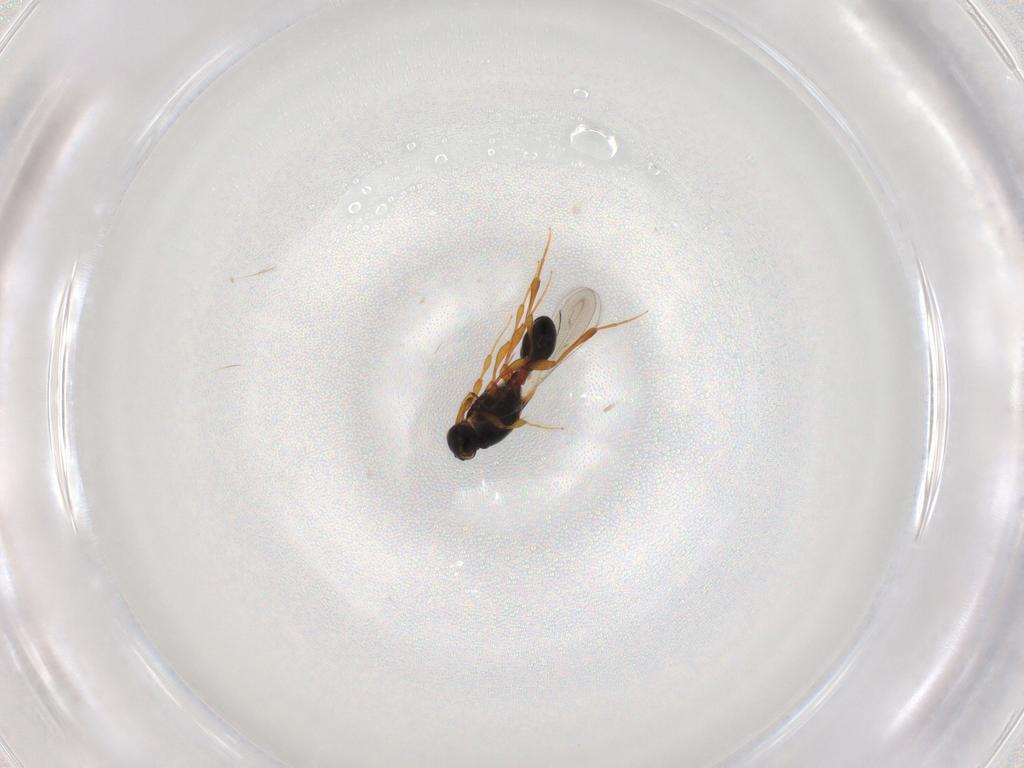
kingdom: Animalia
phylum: Arthropoda
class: Insecta
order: Hymenoptera
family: Platygastridae
